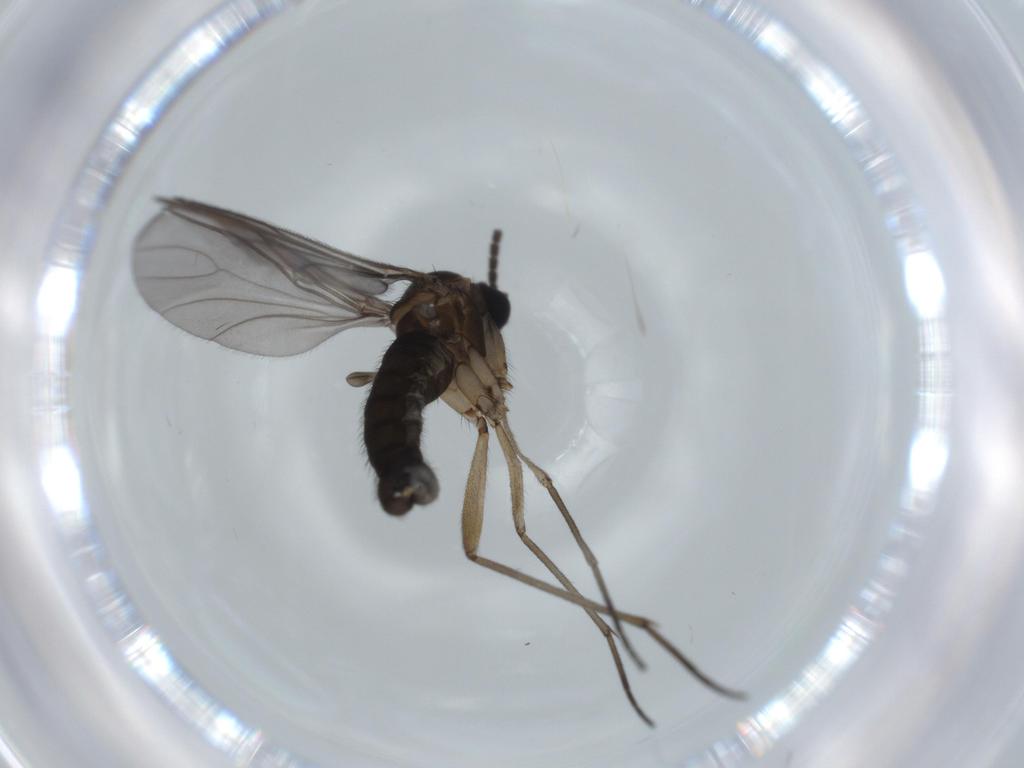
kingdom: Animalia
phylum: Arthropoda
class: Insecta
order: Diptera
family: Sciaridae
